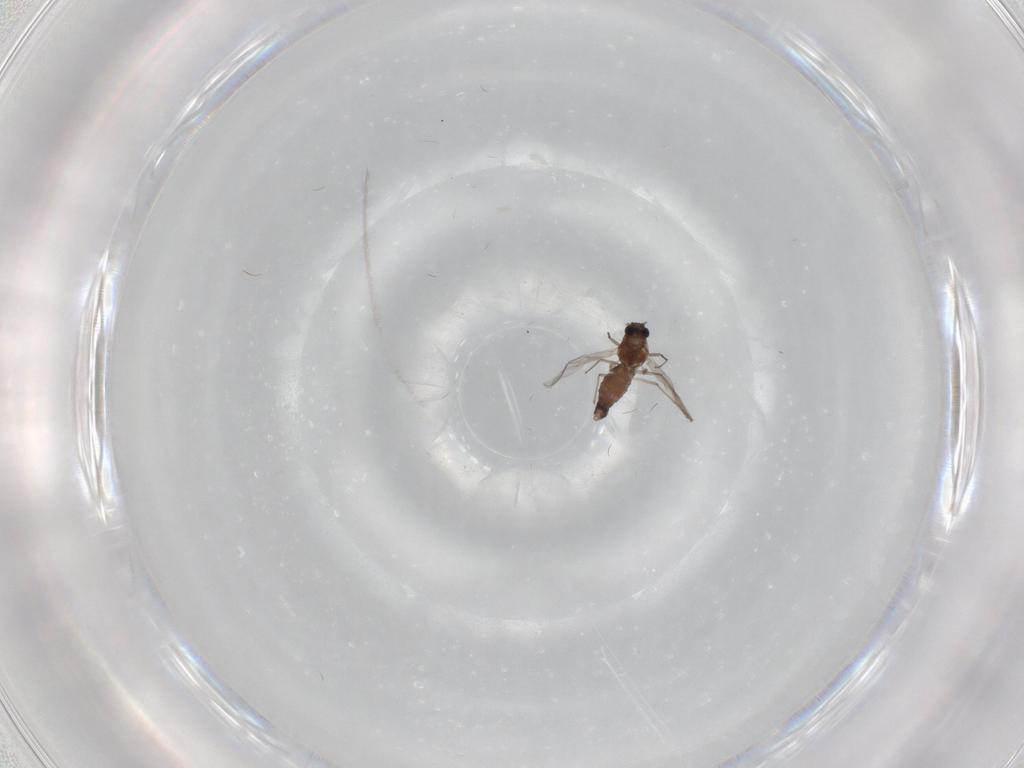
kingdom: Animalia
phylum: Arthropoda
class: Insecta
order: Diptera
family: Chironomidae
